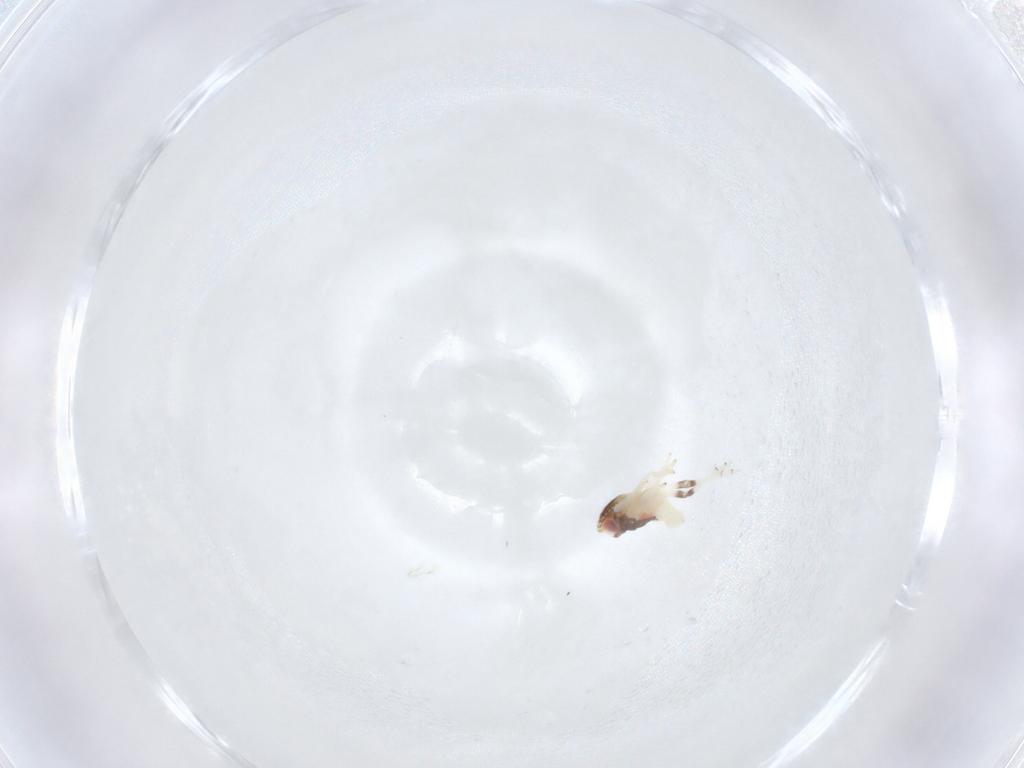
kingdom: Animalia
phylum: Arthropoda
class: Insecta
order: Hemiptera
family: Nogodinidae
